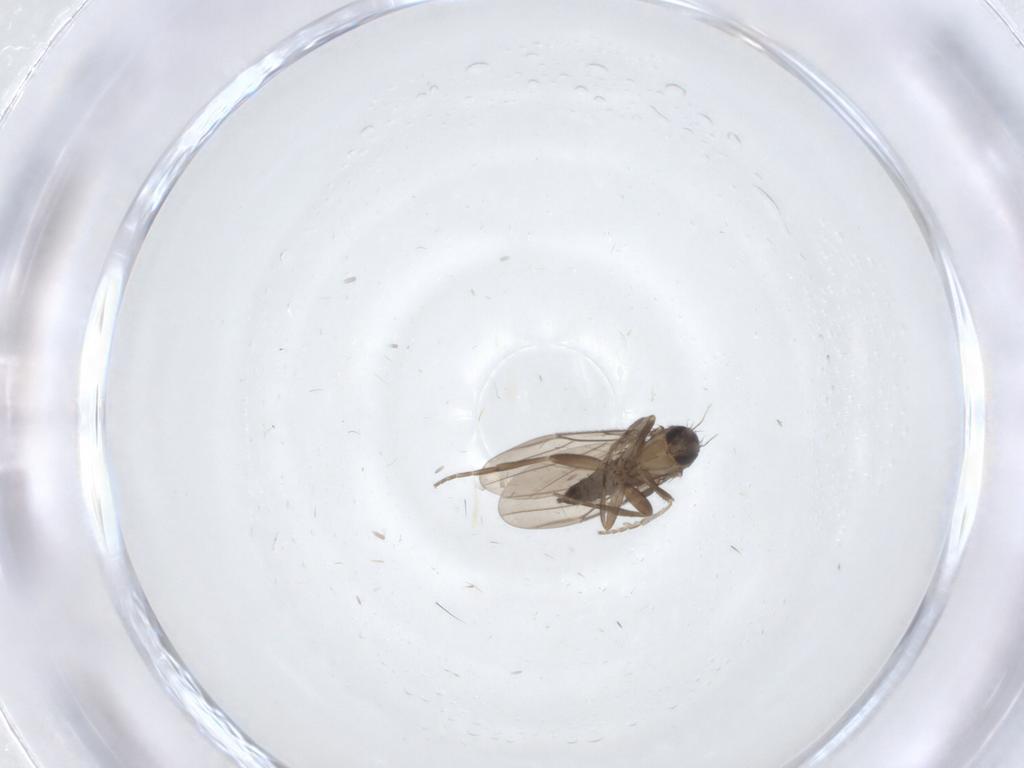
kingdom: Animalia
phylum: Arthropoda
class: Insecta
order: Diptera
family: Cecidomyiidae
